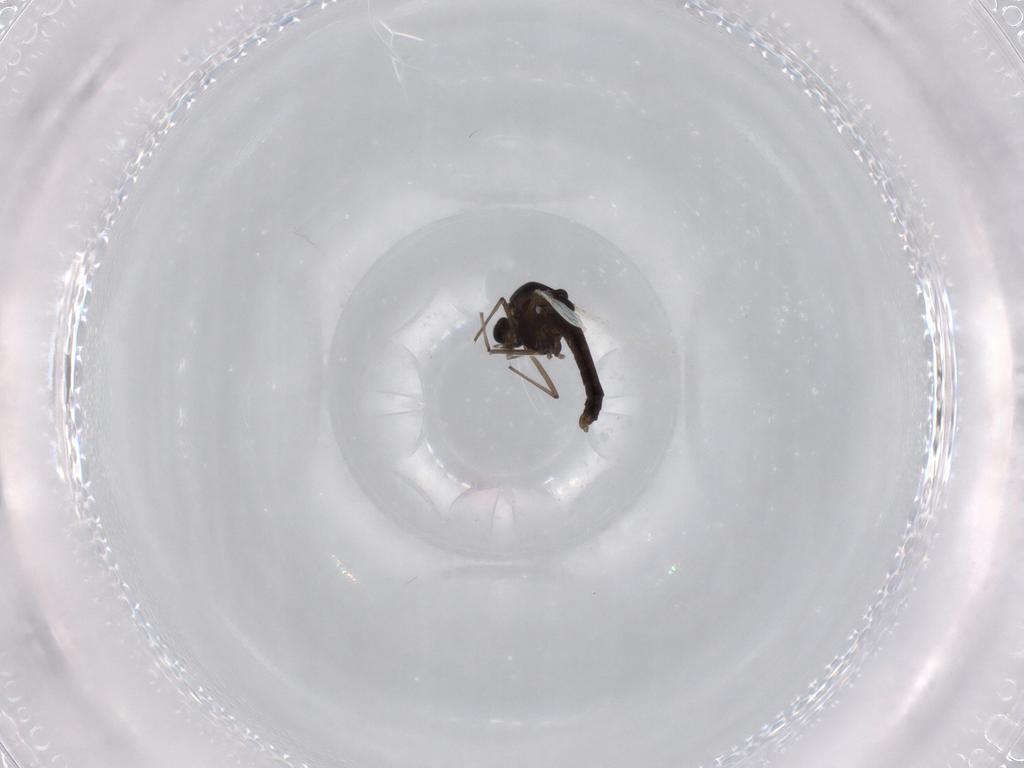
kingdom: Animalia
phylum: Arthropoda
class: Insecta
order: Diptera
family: Chironomidae
